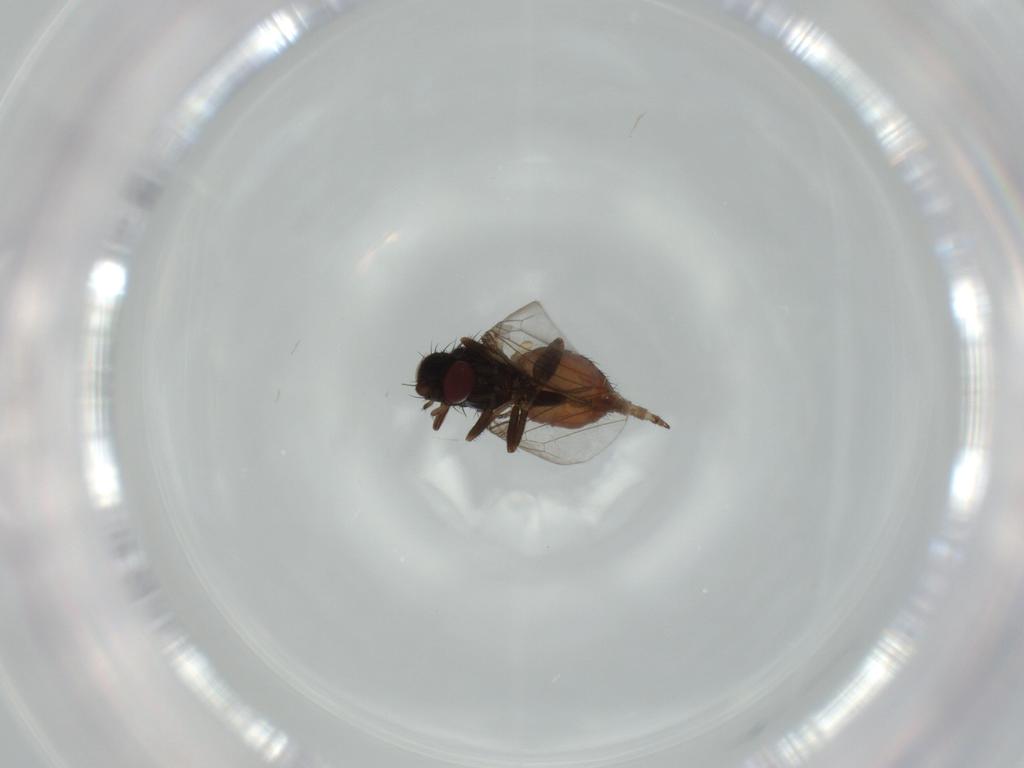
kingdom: Animalia
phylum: Arthropoda
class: Insecta
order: Diptera
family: Milichiidae
